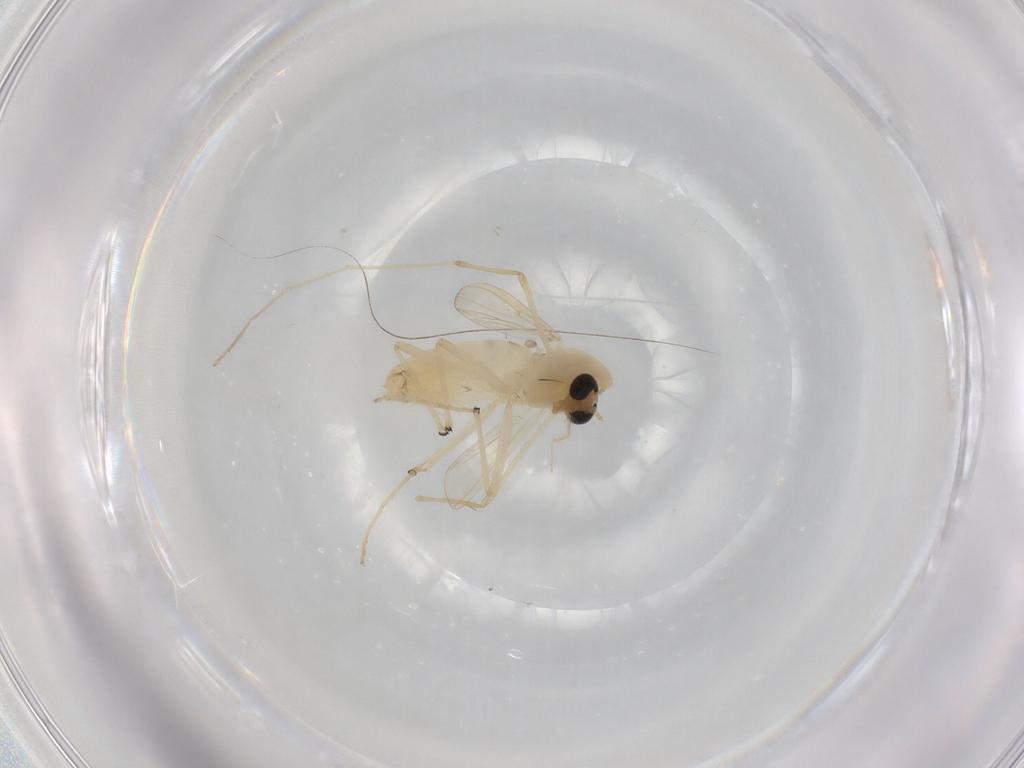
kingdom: Animalia
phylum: Arthropoda
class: Insecta
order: Diptera
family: Chironomidae
